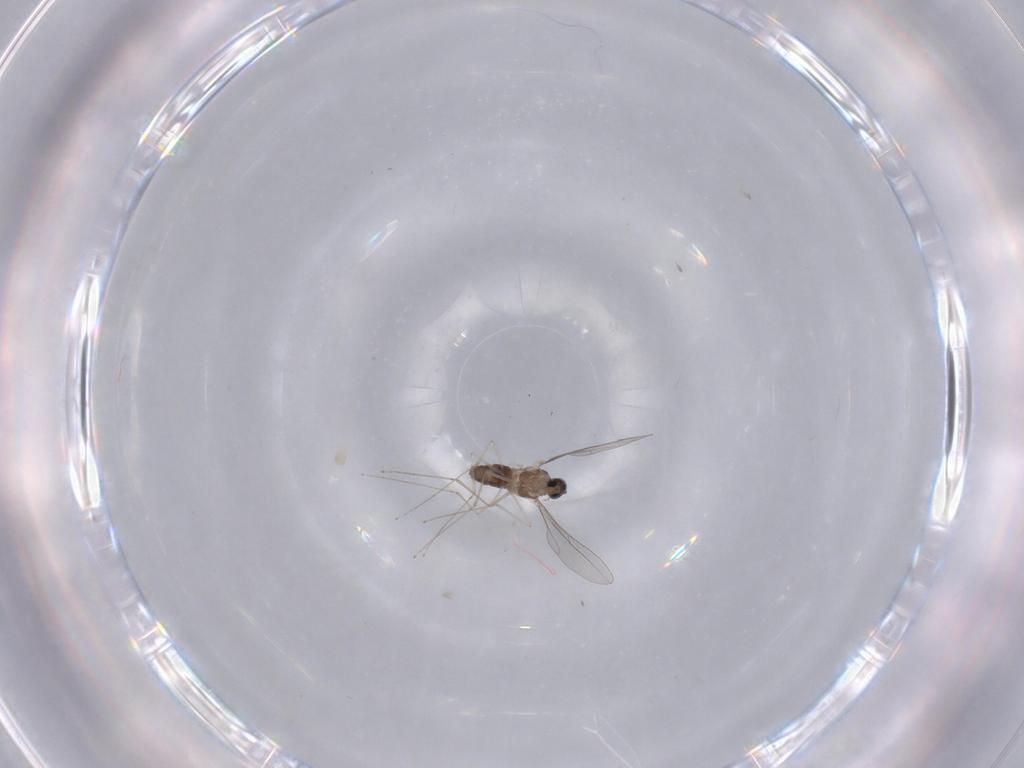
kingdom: Animalia
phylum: Arthropoda
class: Insecta
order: Diptera
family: Cecidomyiidae
